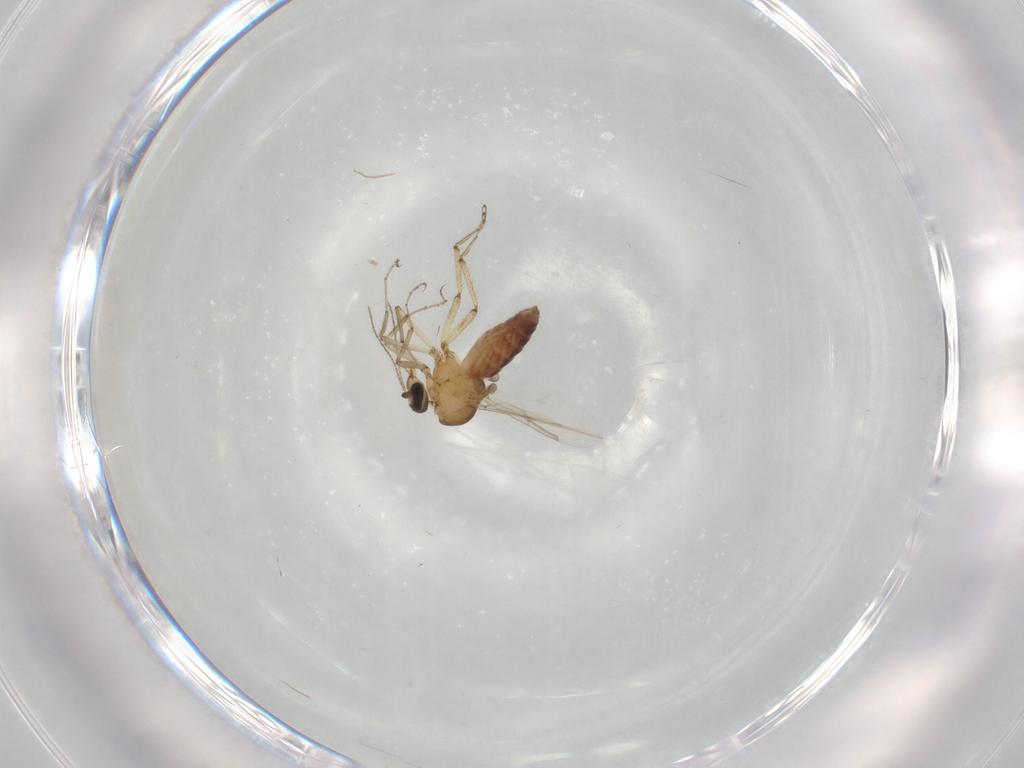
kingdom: Animalia
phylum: Arthropoda
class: Insecta
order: Diptera
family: Ceratopogonidae
